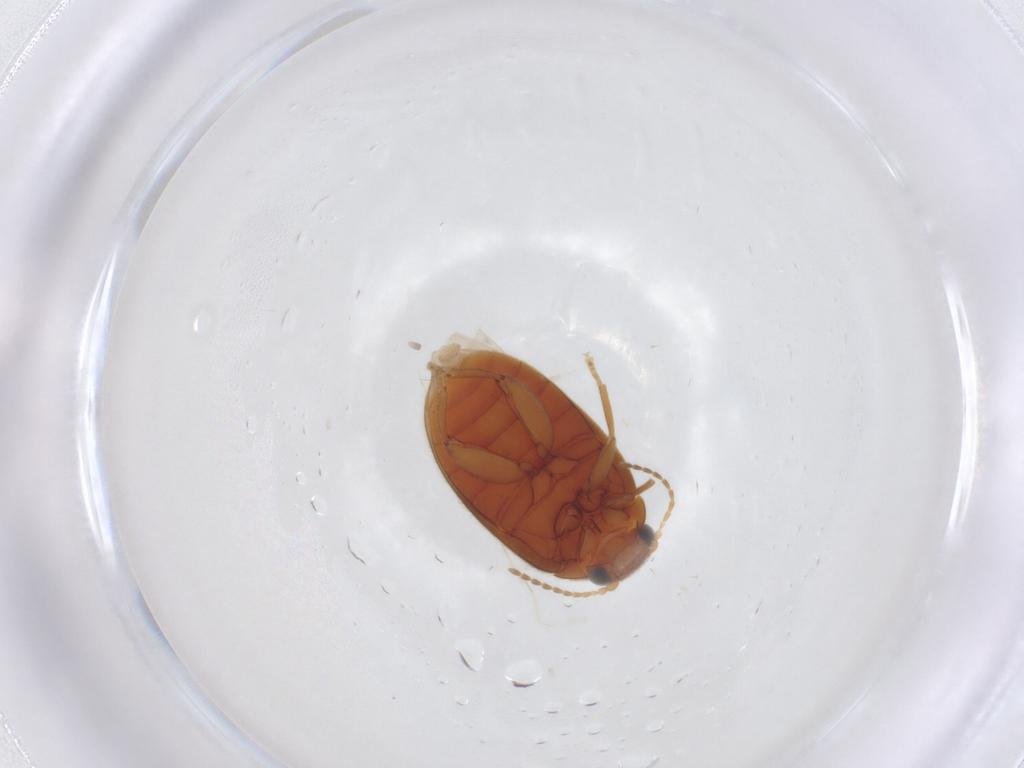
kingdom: Animalia
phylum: Arthropoda
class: Insecta
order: Coleoptera
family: Scirtidae
